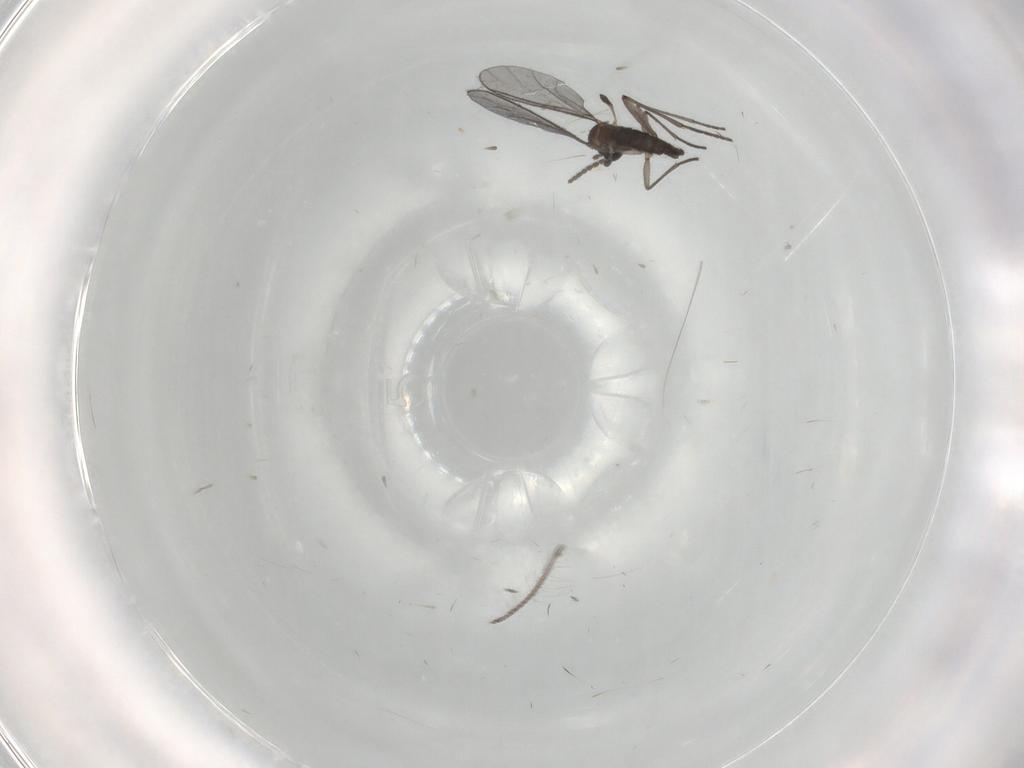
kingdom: Animalia
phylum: Arthropoda
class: Insecta
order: Diptera
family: Chironomidae
